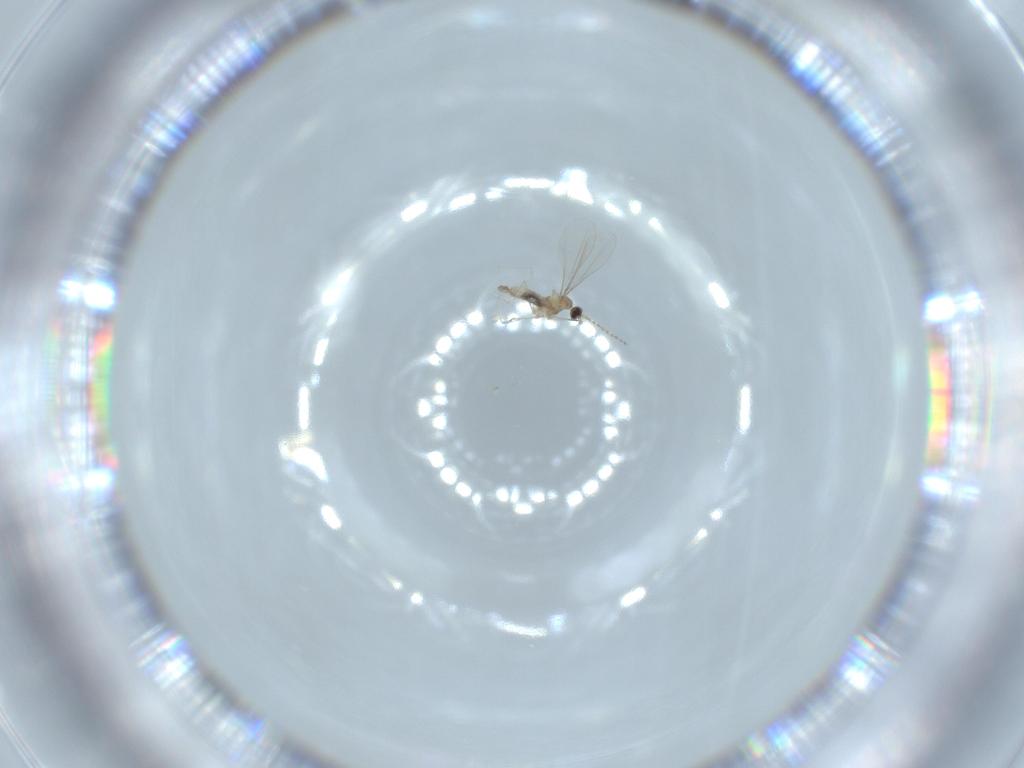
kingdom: Animalia
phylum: Arthropoda
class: Insecta
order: Diptera
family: Cecidomyiidae
